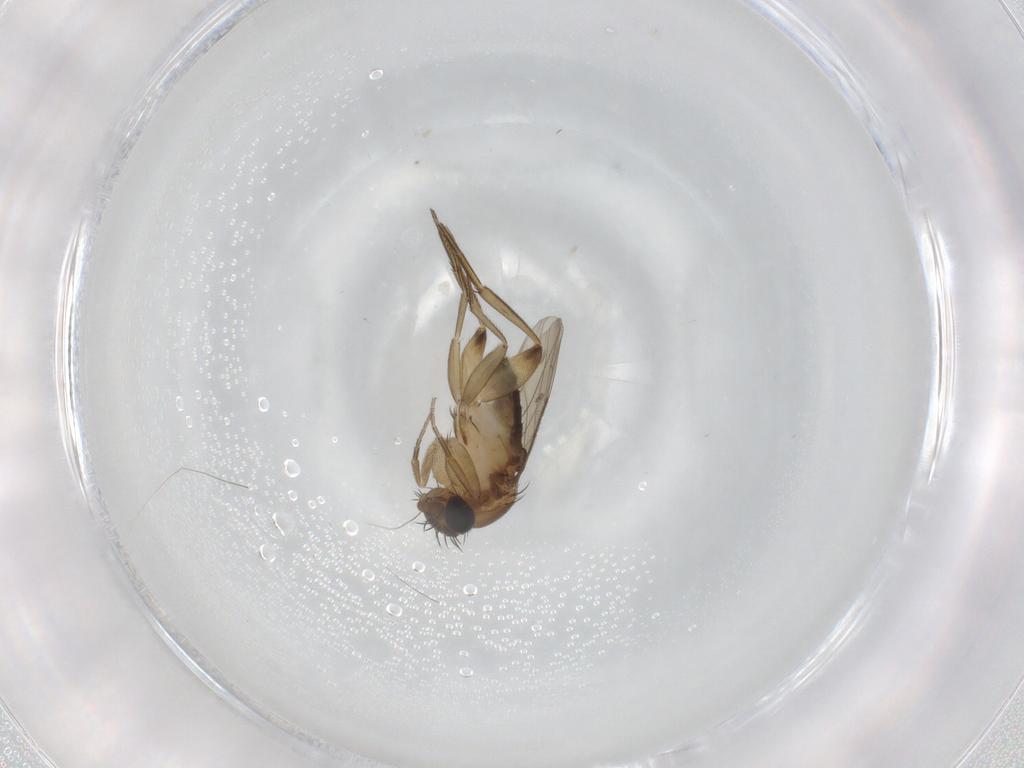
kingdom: Animalia
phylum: Arthropoda
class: Insecta
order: Diptera
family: Phoridae
